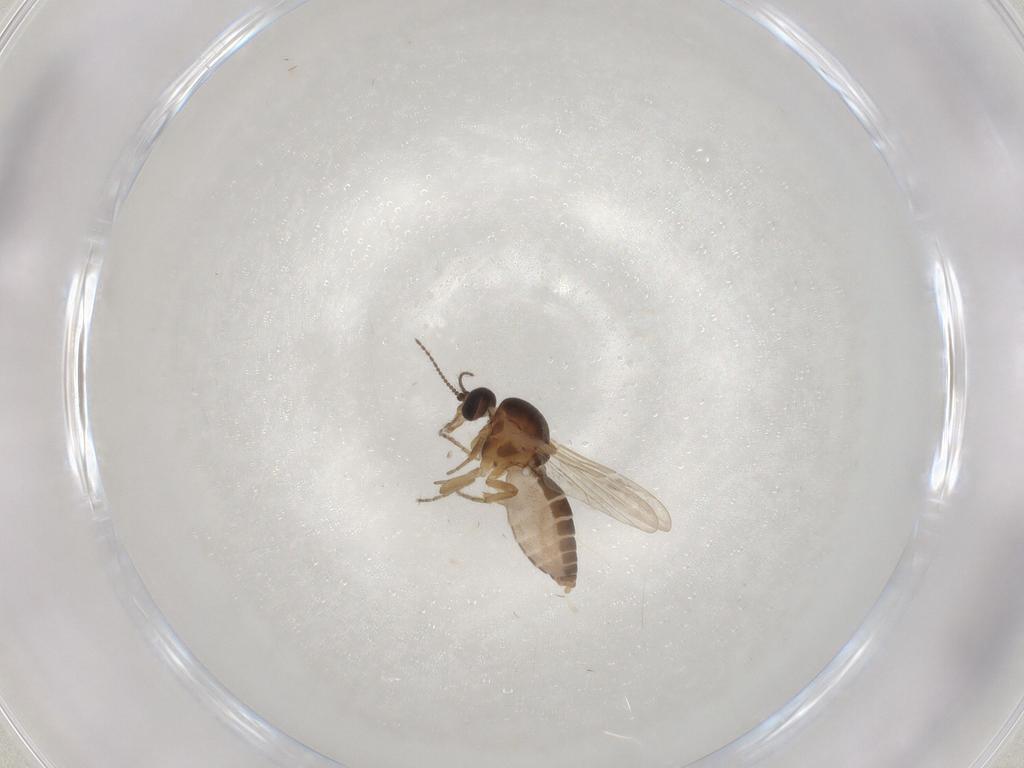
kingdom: Animalia
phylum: Arthropoda
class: Insecta
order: Diptera
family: Ceratopogonidae
